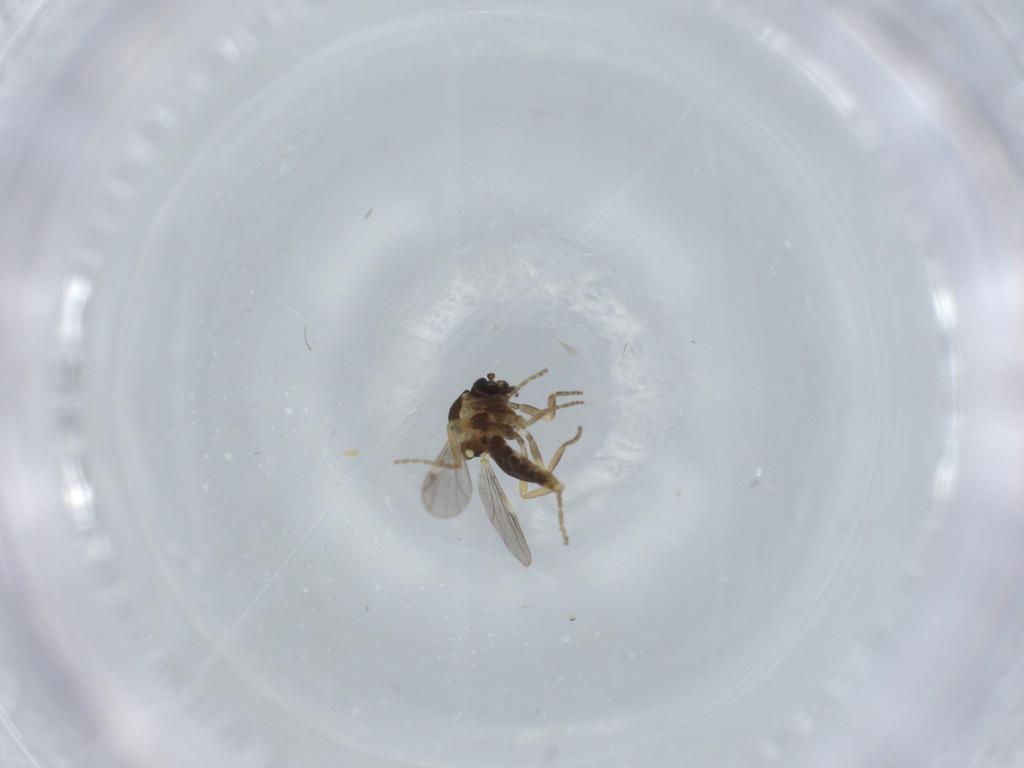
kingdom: Animalia
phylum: Arthropoda
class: Insecta
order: Diptera
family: Ceratopogonidae
